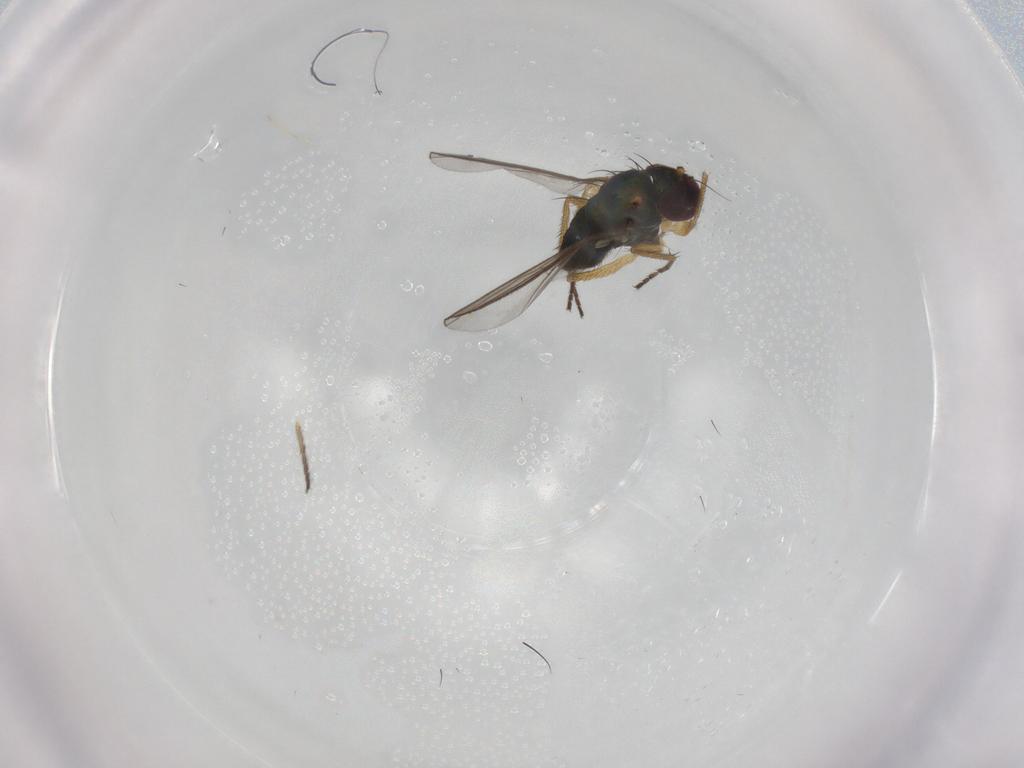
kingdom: Animalia
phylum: Arthropoda
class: Insecta
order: Diptera
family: Dolichopodidae
